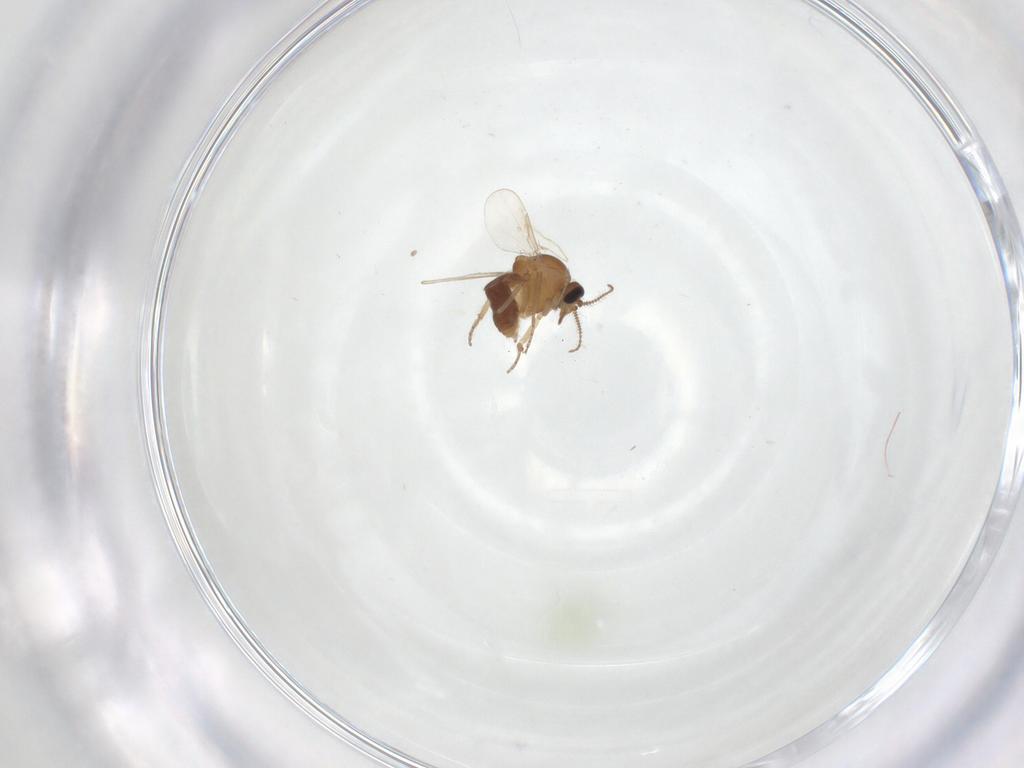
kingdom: Animalia
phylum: Arthropoda
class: Insecta
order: Diptera
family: Ceratopogonidae
